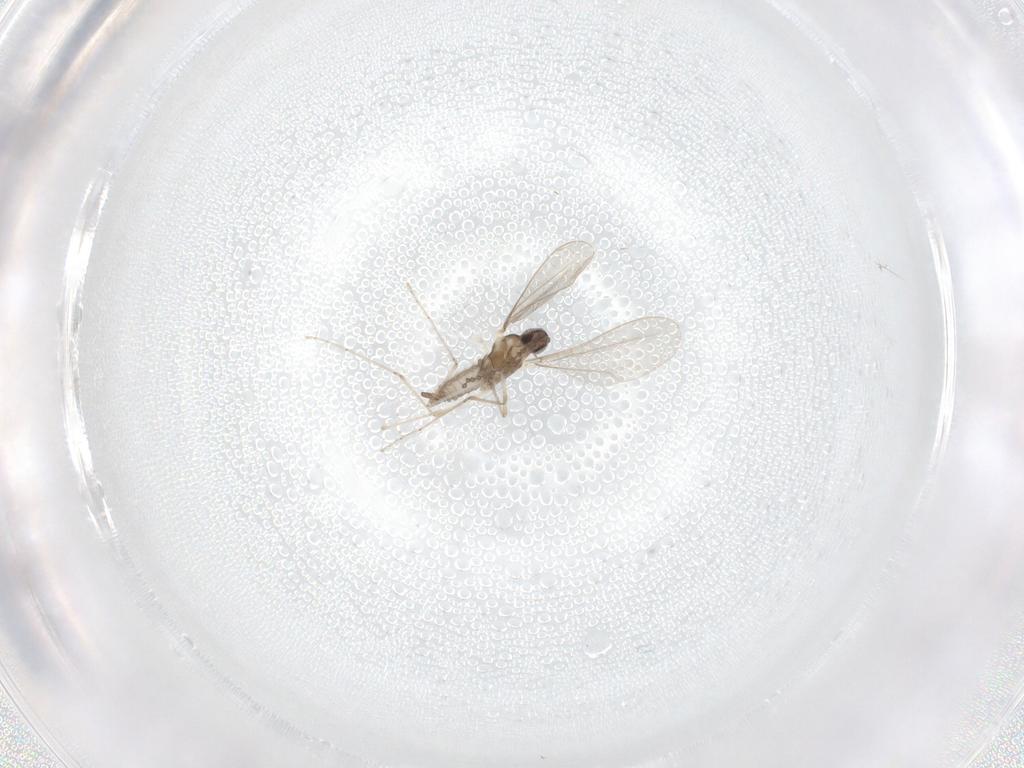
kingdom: Animalia
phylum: Arthropoda
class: Insecta
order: Diptera
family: Cecidomyiidae
